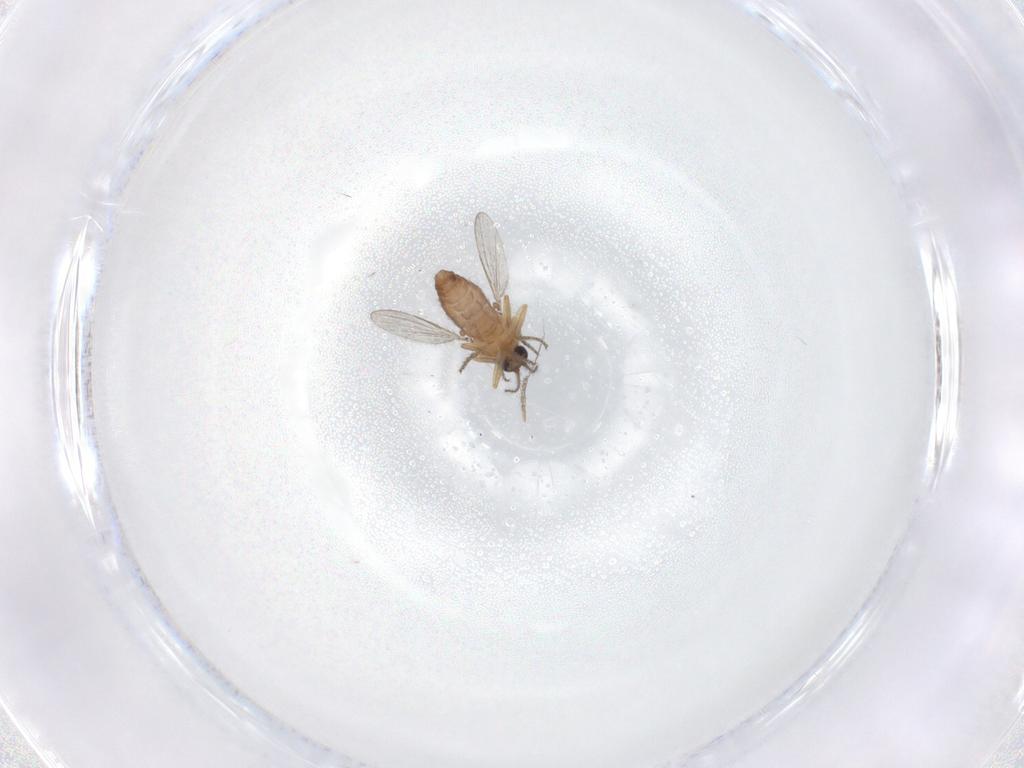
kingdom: Animalia
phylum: Arthropoda
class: Insecta
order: Diptera
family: Ceratopogonidae
